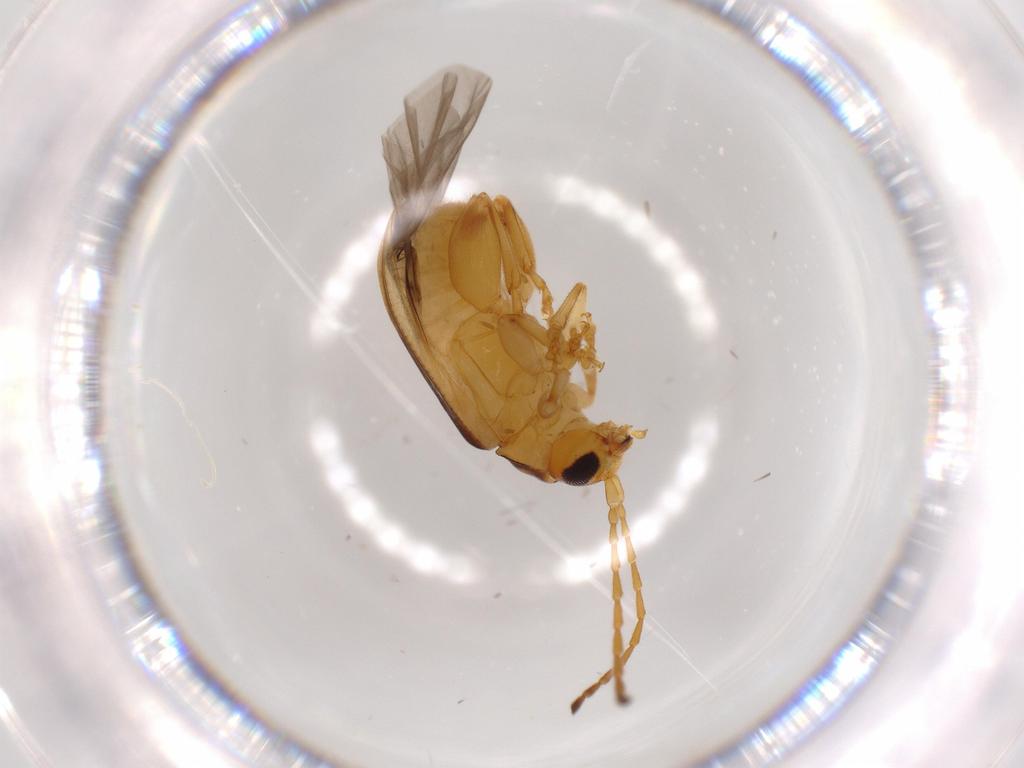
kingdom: Animalia
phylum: Arthropoda
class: Insecta
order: Coleoptera
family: Chrysomelidae
